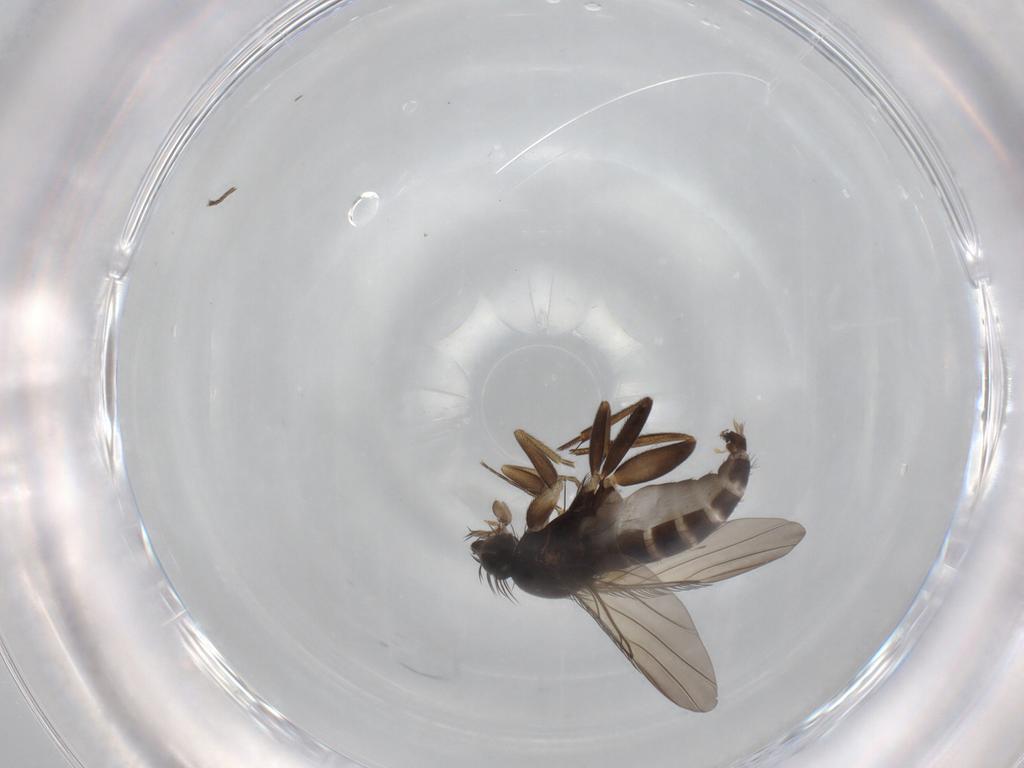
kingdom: Animalia
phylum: Arthropoda
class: Insecta
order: Diptera
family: Phoridae
